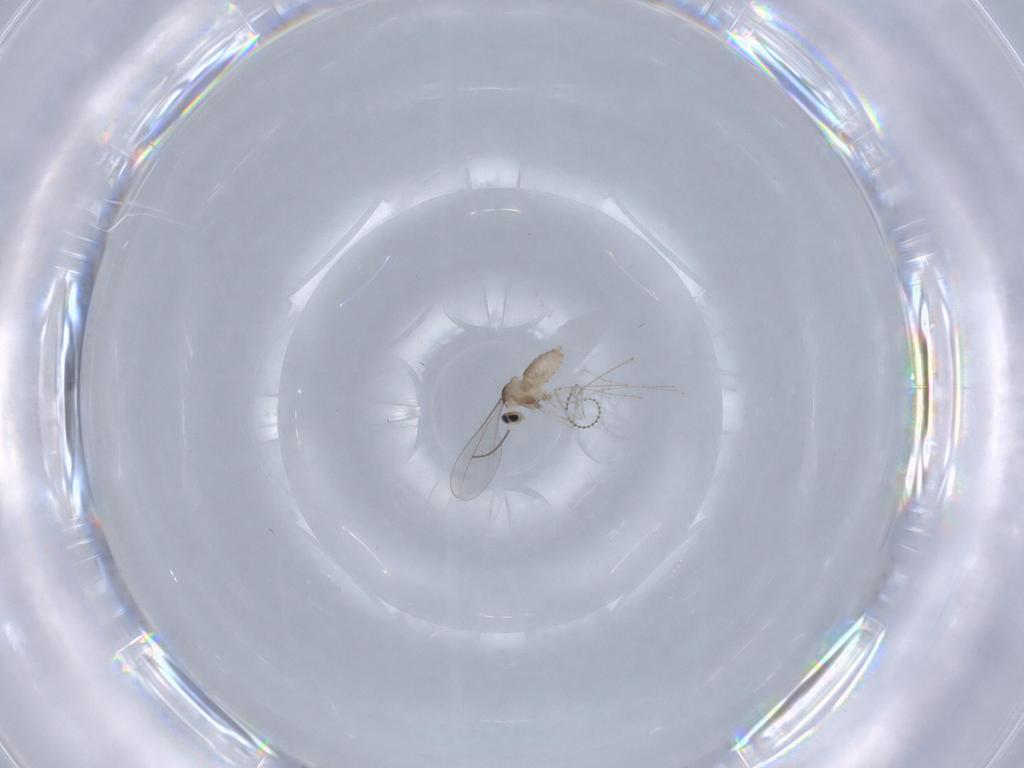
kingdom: Animalia
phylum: Arthropoda
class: Insecta
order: Diptera
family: Cecidomyiidae
